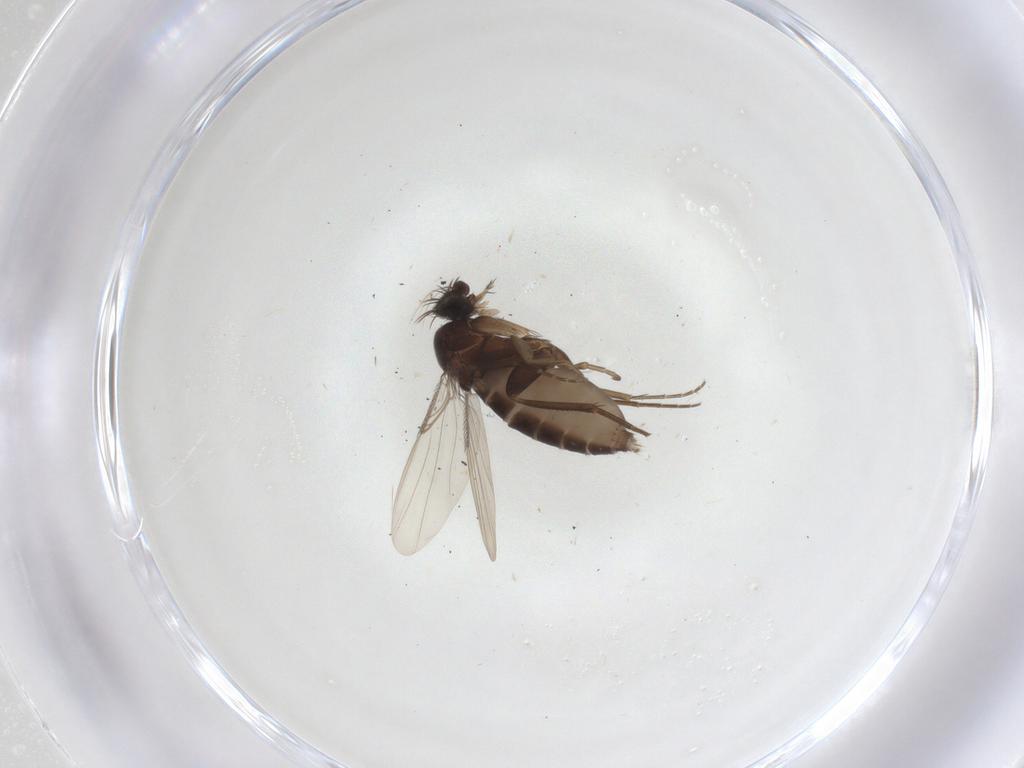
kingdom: Animalia
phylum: Arthropoda
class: Insecta
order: Diptera
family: Phoridae
